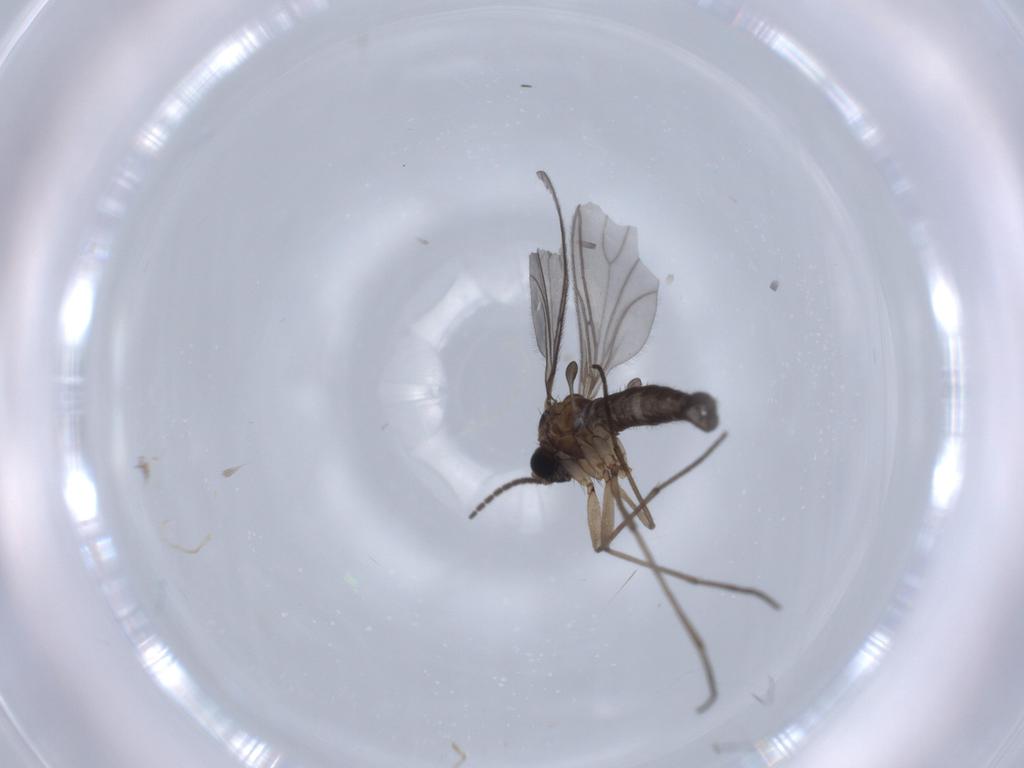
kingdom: Animalia
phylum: Arthropoda
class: Insecta
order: Diptera
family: Sciaridae
